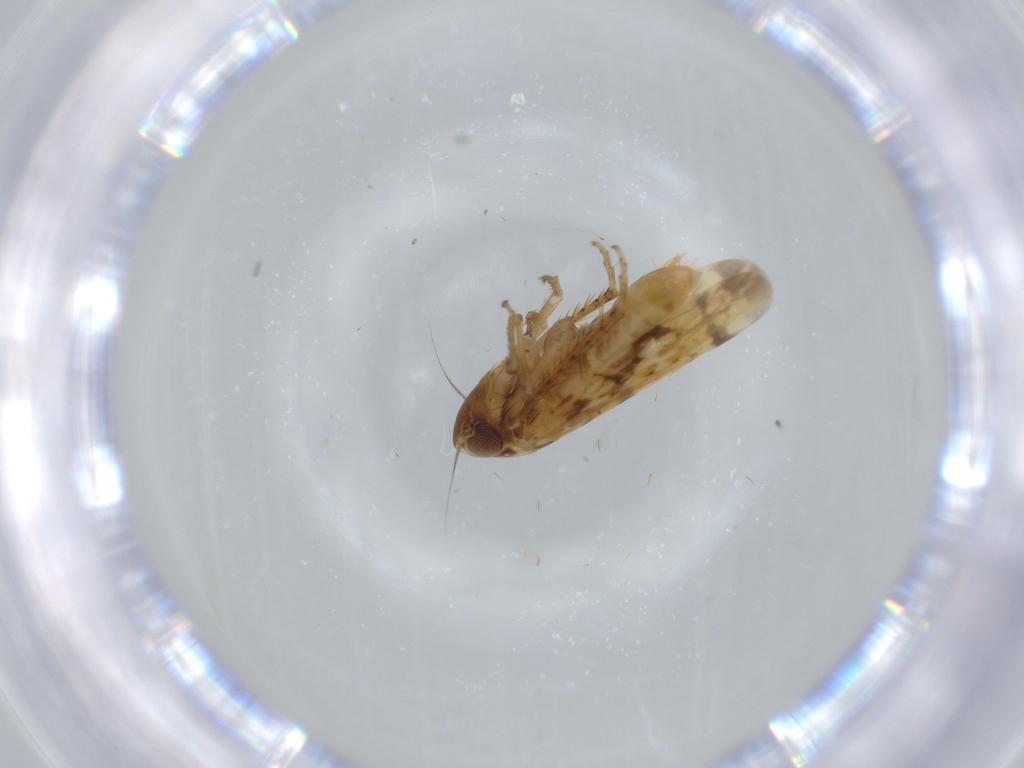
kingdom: Animalia
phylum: Arthropoda
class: Insecta
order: Hemiptera
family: Cicadellidae
